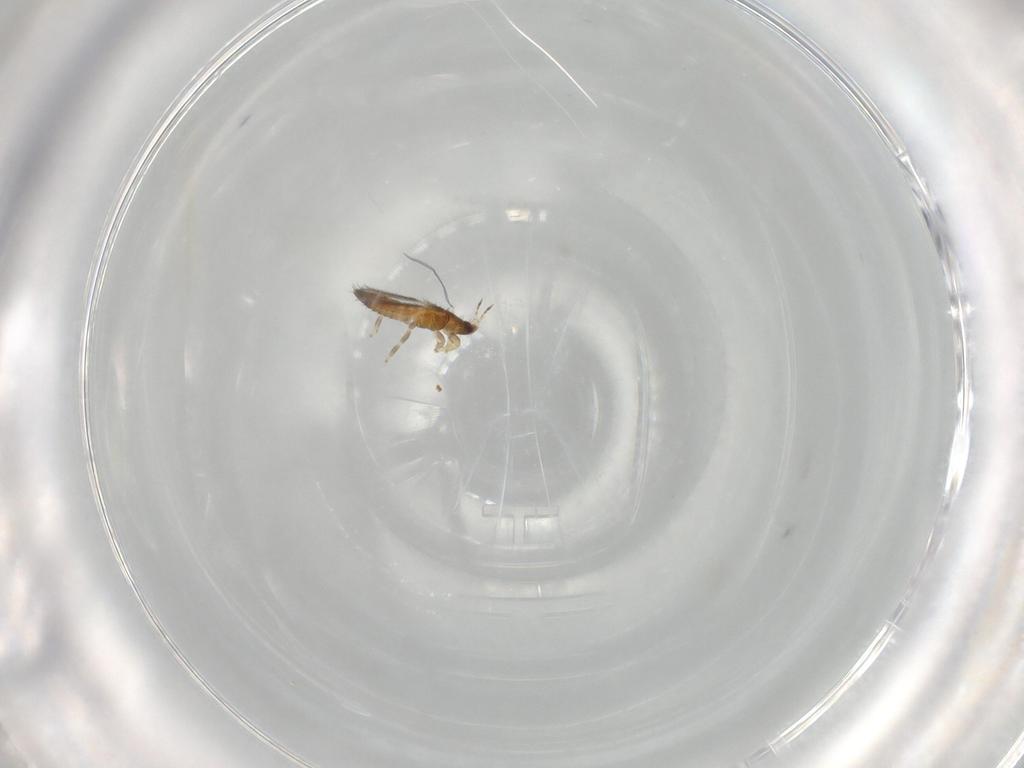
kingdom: Animalia
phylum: Arthropoda
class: Insecta
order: Thysanoptera
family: Thripidae
